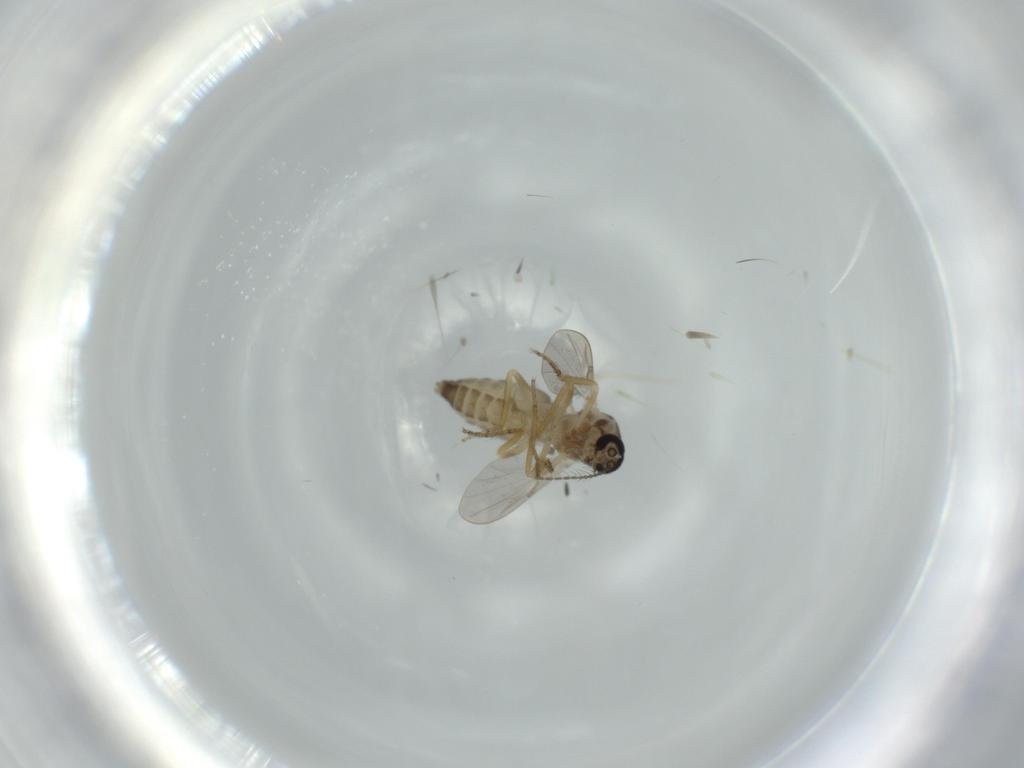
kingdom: Animalia
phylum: Arthropoda
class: Insecta
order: Diptera
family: Ceratopogonidae
